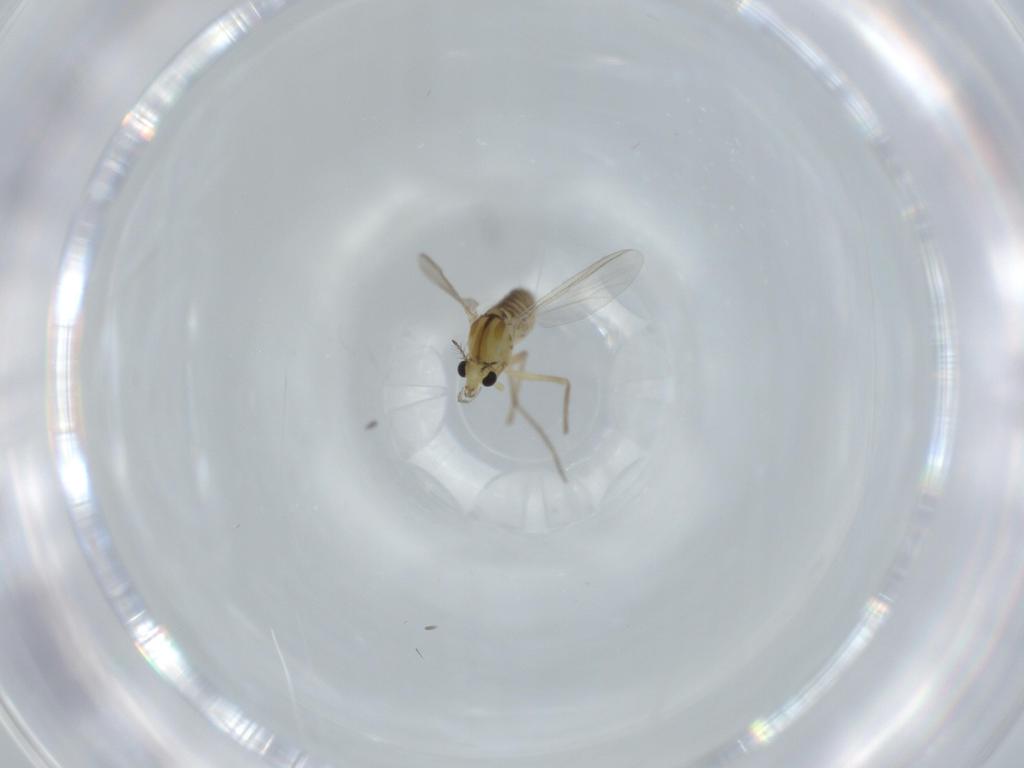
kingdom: Animalia
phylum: Arthropoda
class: Insecta
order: Diptera
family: Chironomidae
